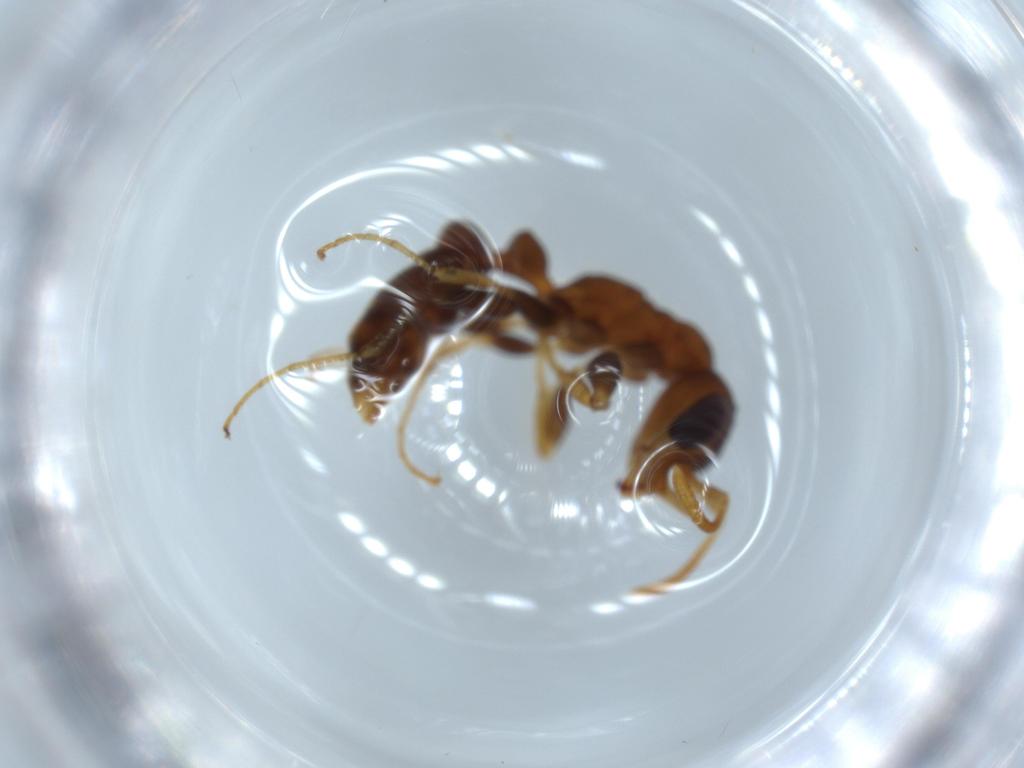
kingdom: Animalia
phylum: Arthropoda
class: Insecta
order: Hymenoptera
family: Formicidae
